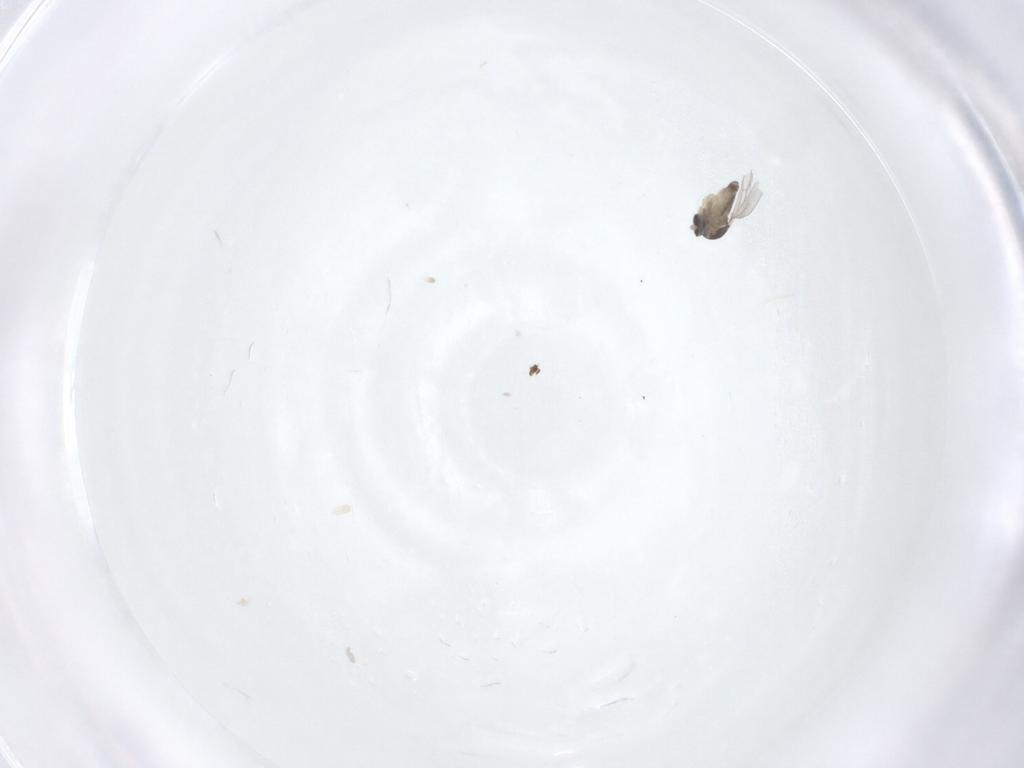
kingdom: Animalia
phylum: Arthropoda
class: Insecta
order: Diptera
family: Cecidomyiidae
